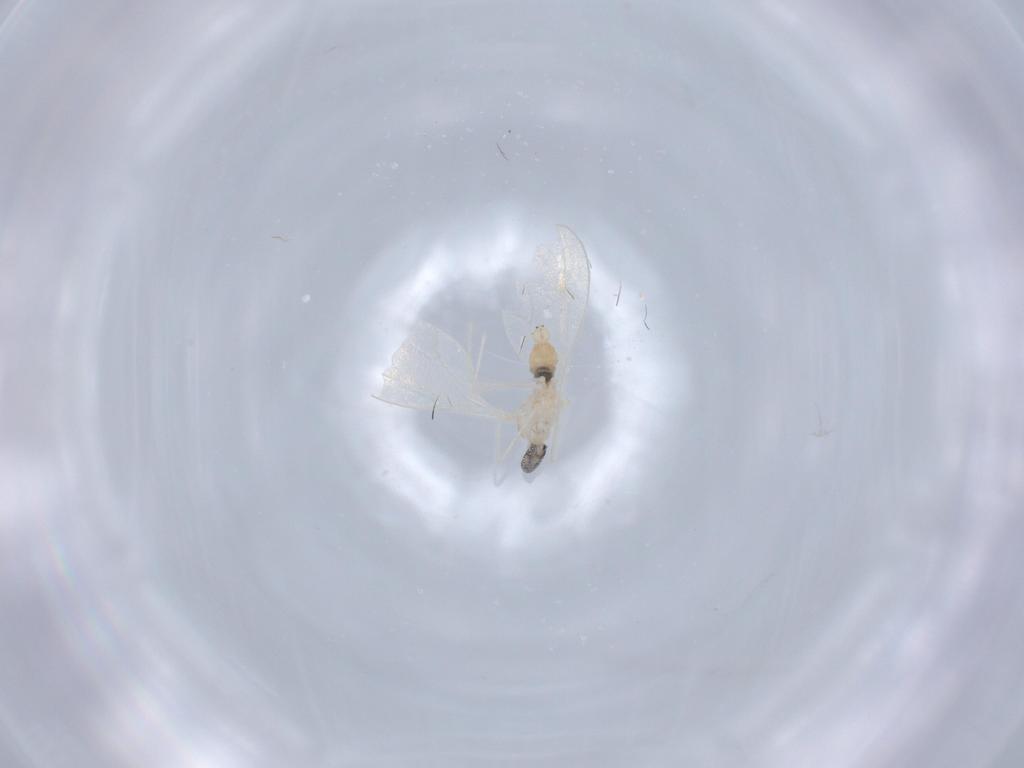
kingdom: Animalia
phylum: Arthropoda
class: Insecta
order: Diptera
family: Cecidomyiidae
